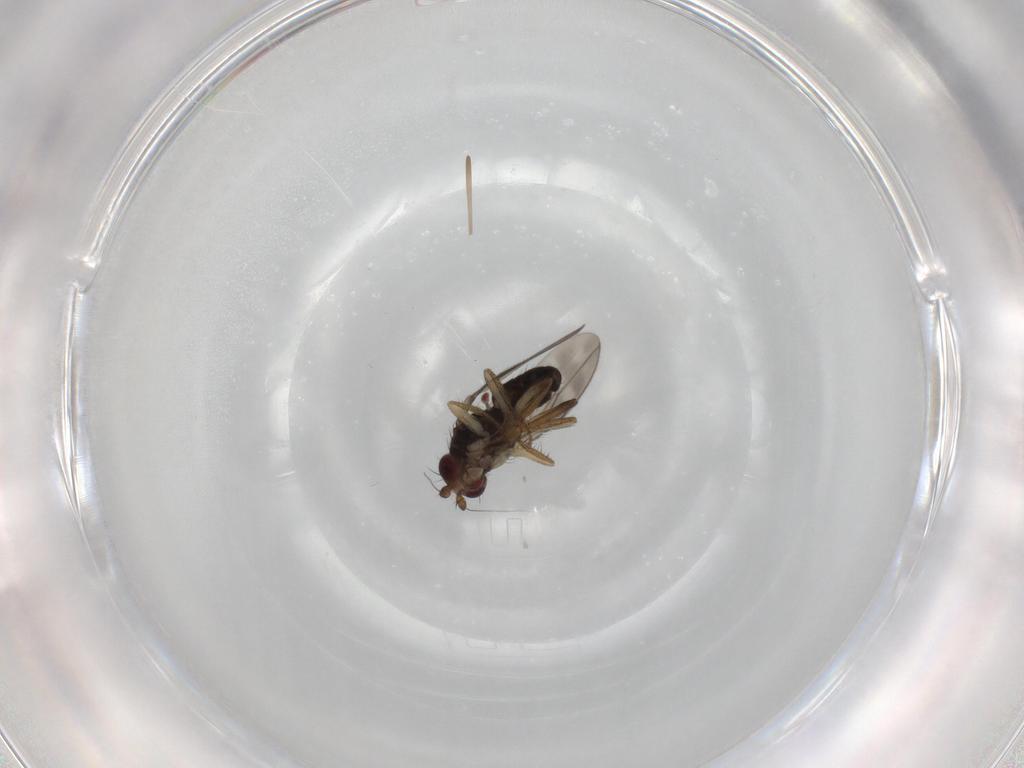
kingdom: Animalia
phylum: Arthropoda
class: Insecta
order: Diptera
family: Sphaeroceridae
